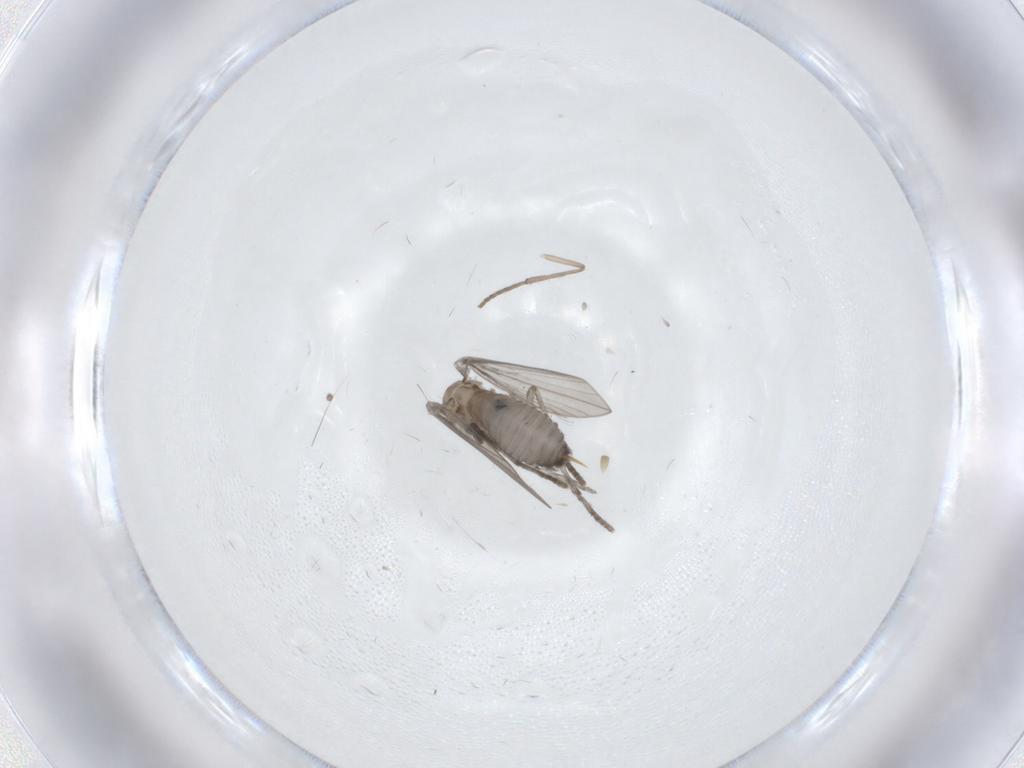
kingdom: Animalia
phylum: Arthropoda
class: Insecta
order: Diptera
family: Psychodidae
